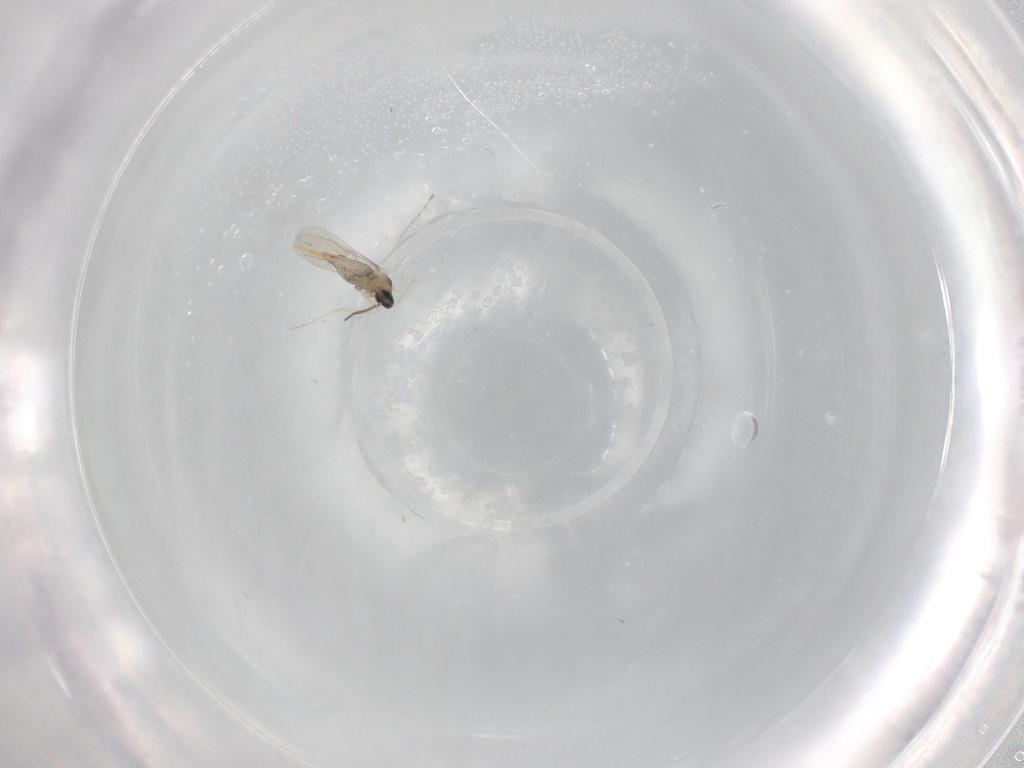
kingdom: Animalia
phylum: Arthropoda
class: Insecta
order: Diptera
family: Cecidomyiidae
